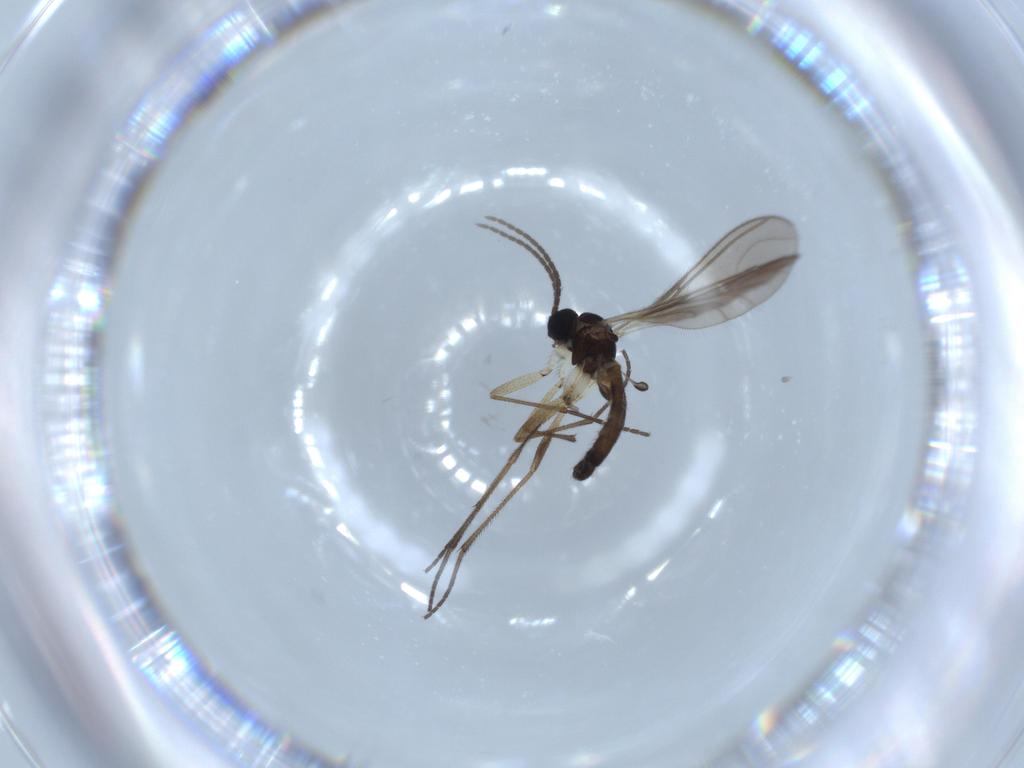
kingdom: Animalia
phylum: Arthropoda
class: Insecta
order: Diptera
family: Sciaridae
